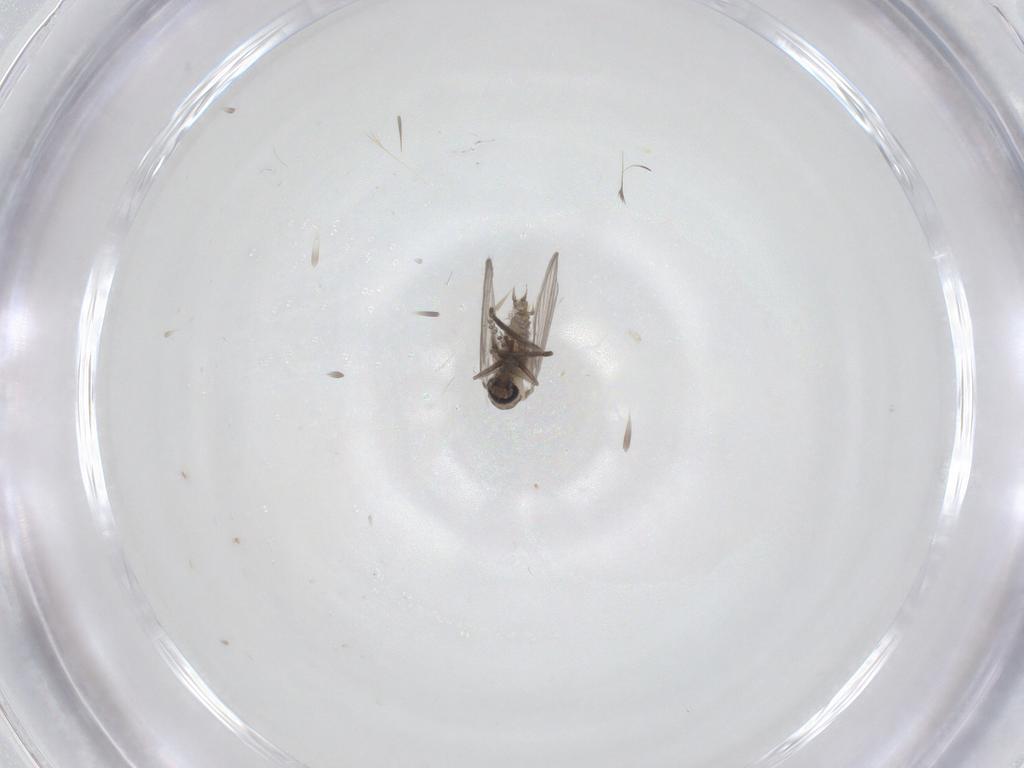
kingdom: Animalia
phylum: Arthropoda
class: Insecta
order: Diptera
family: Psychodidae
